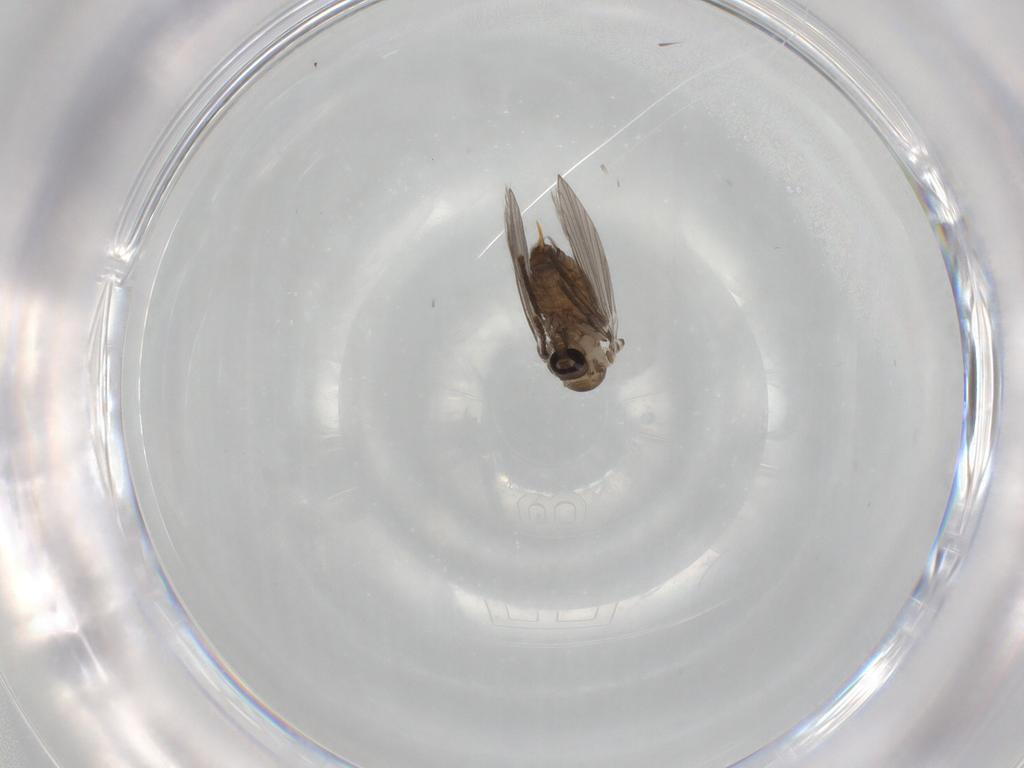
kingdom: Animalia
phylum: Arthropoda
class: Insecta
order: Diptera
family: Psychodidae
